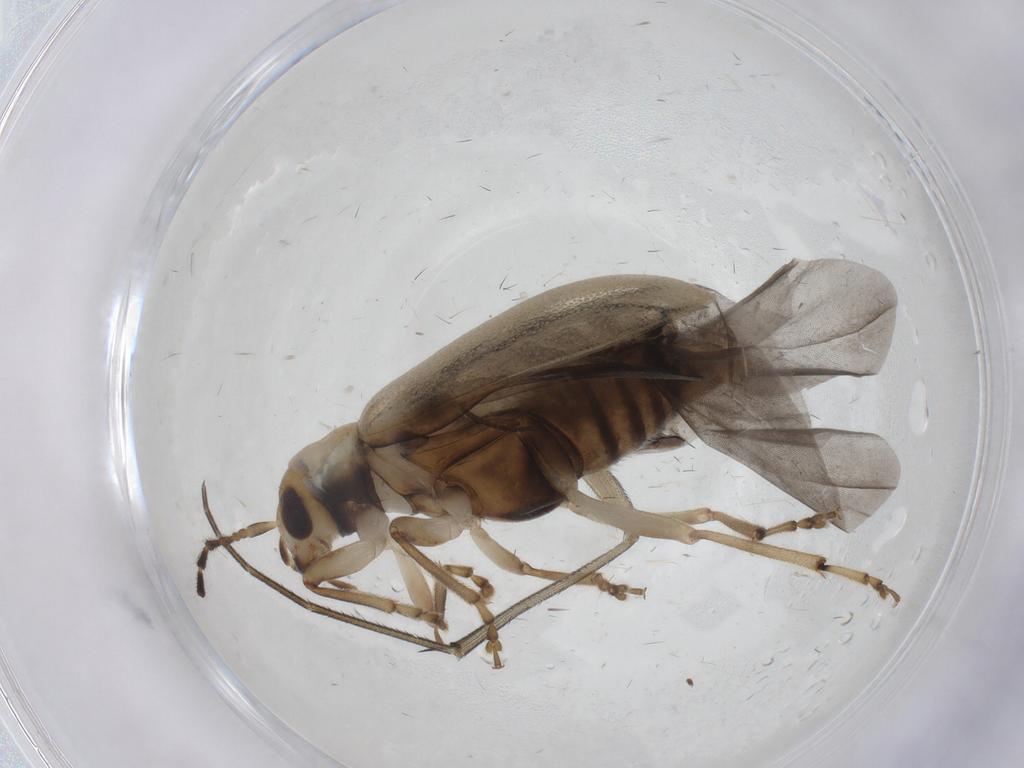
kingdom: Animalia
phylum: Arthropoda
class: Insecta
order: Coleoptera
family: Chrysomelidae
